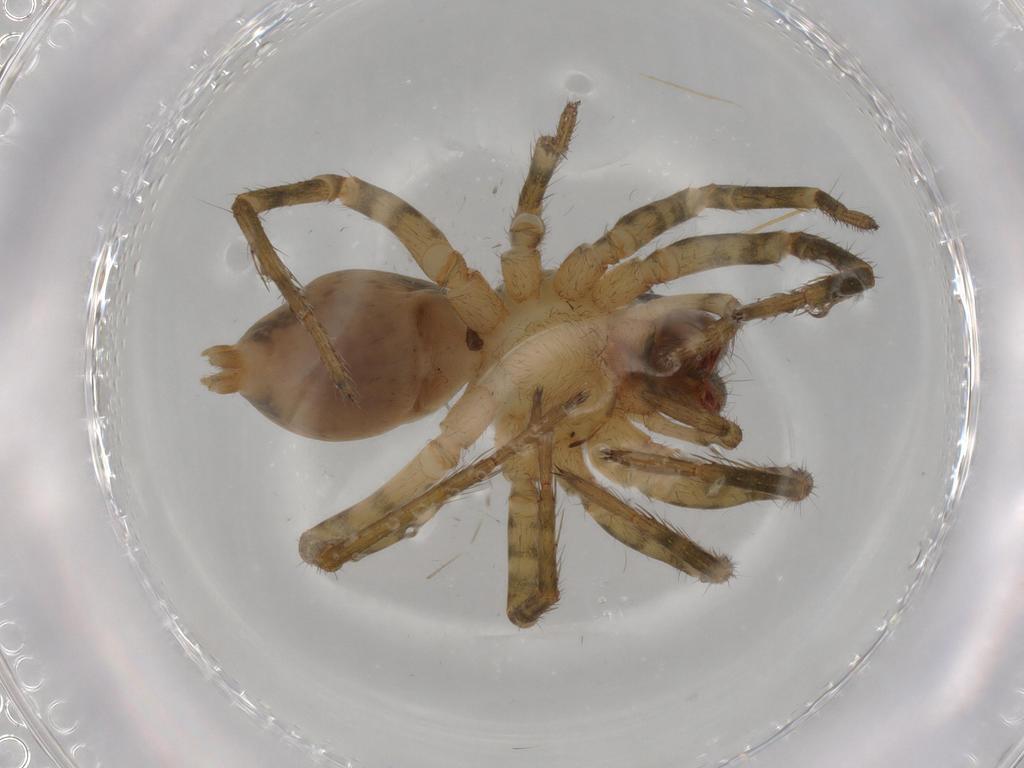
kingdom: Animalia
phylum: Arthropoda
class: Arachnida
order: Araneae
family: Lycosidae
